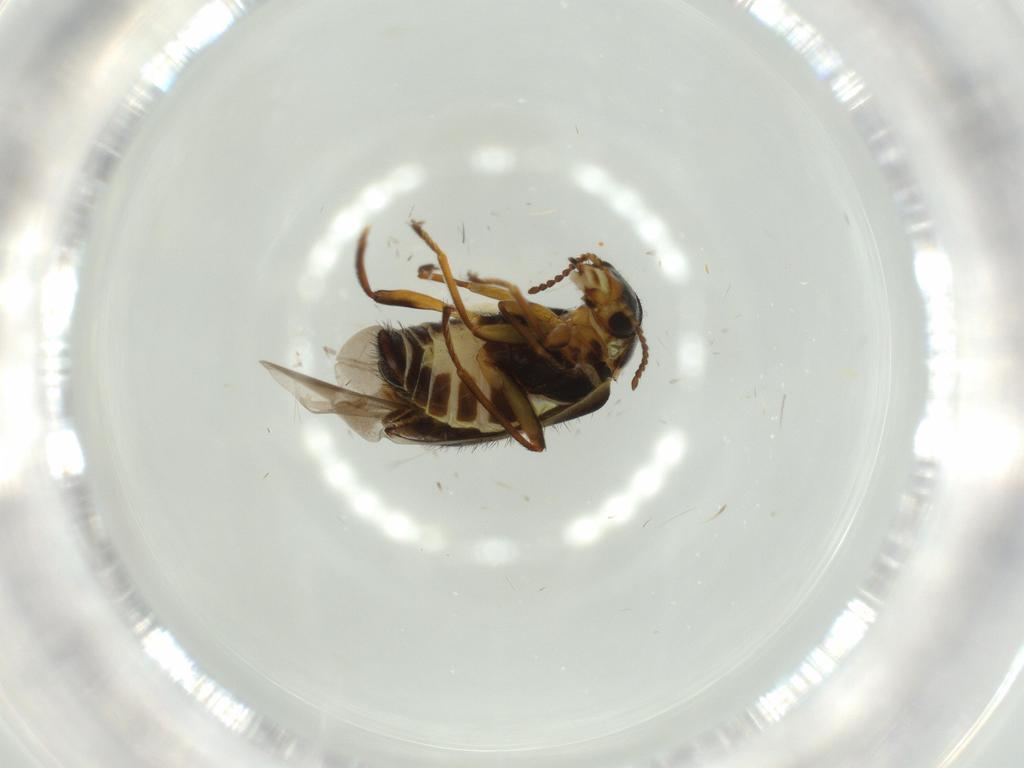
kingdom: Animalia
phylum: Arthropoda
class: Insecta
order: Coleoptera
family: Melyridae
